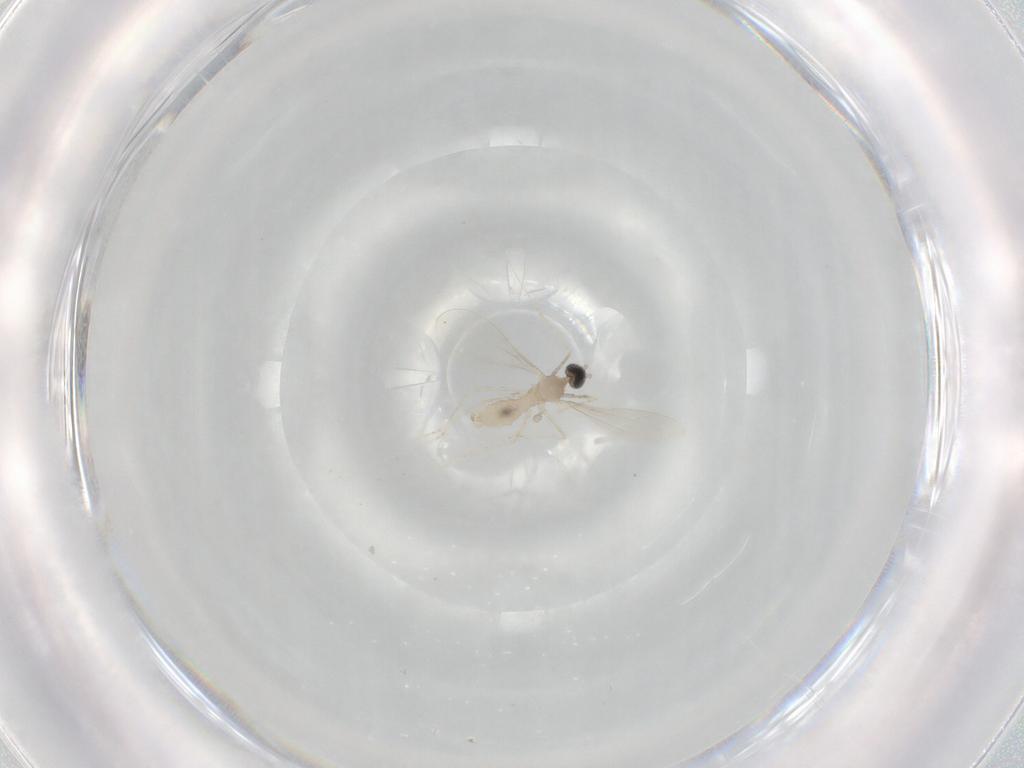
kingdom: Animalia
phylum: Arthropoda
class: Insecta
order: Diptera
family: Cecidomyiidae
